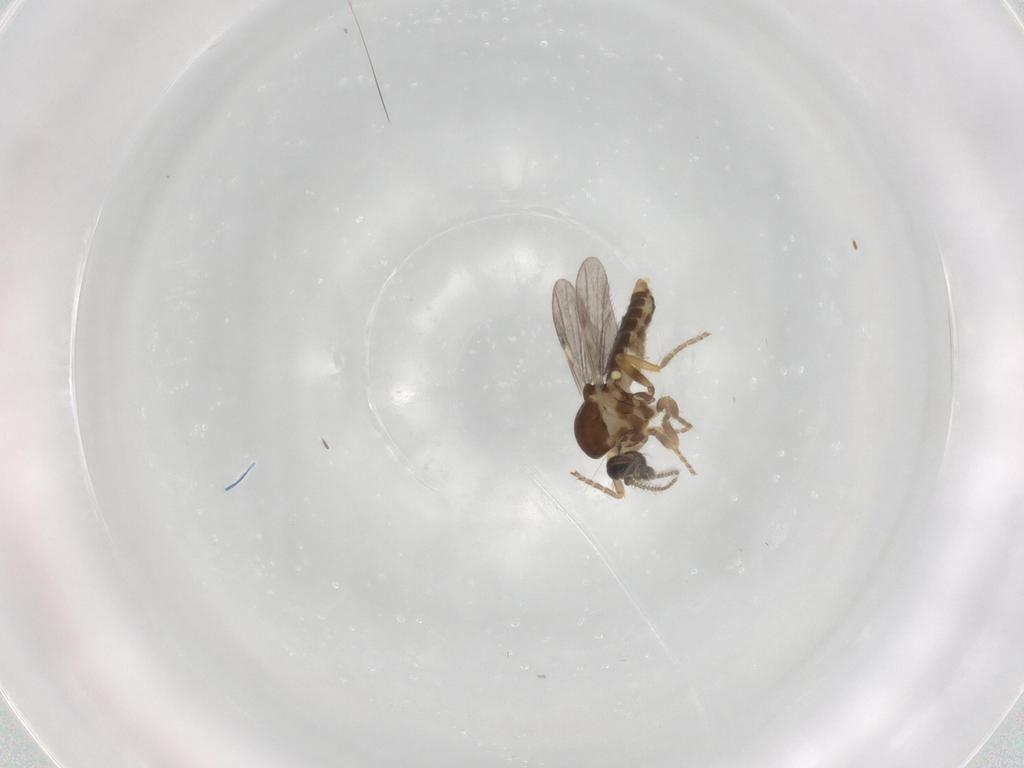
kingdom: Animalia
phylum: Arthropoda
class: Insecta
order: Diptera
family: Ceratopogonidae
